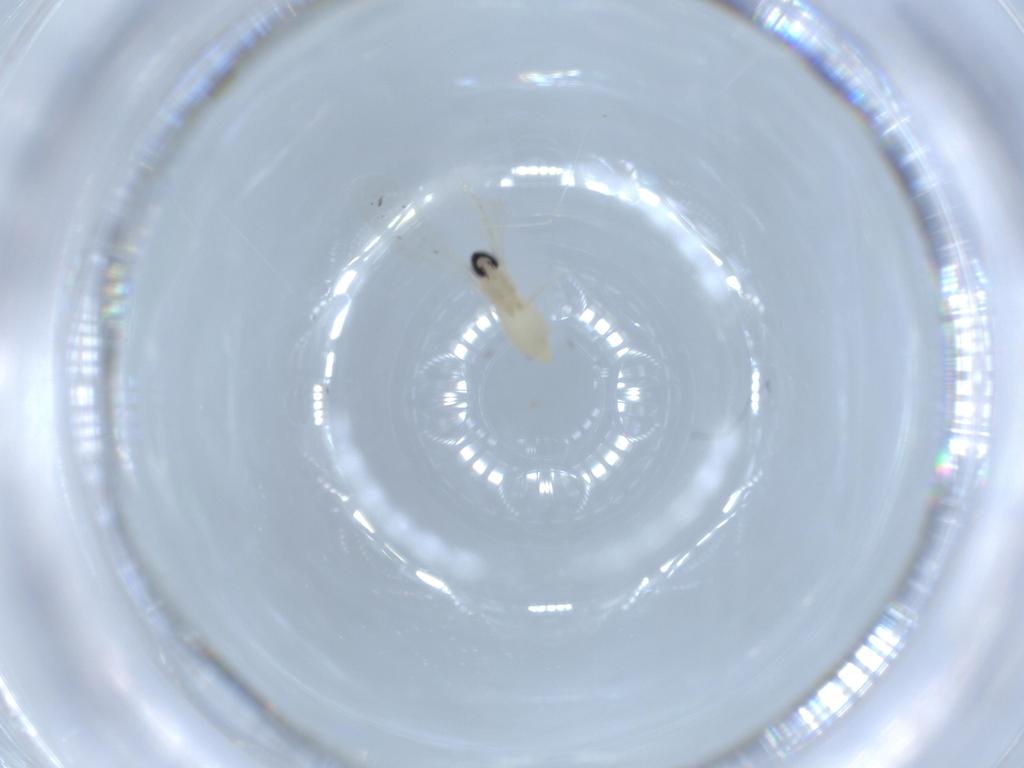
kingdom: Animalia
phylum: Arthropoda
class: Insecta
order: Diptera
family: Cecidomyiidae
